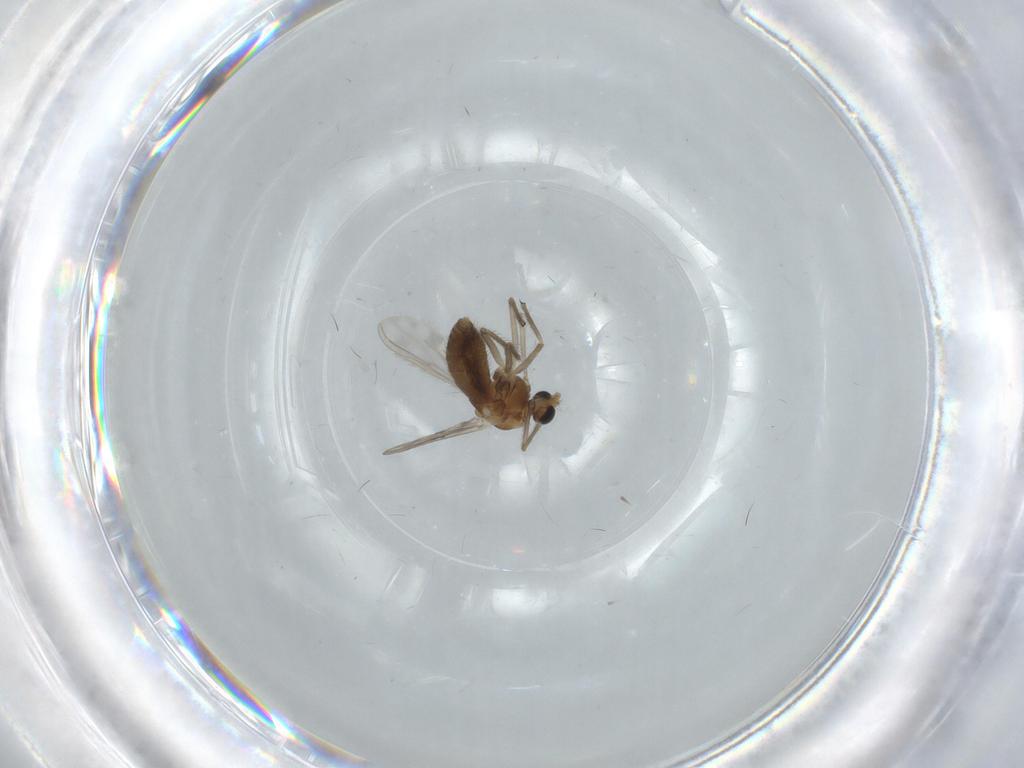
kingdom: Animalia
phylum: Arthropoda
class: Insecta
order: Diptera
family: Chironomidae
